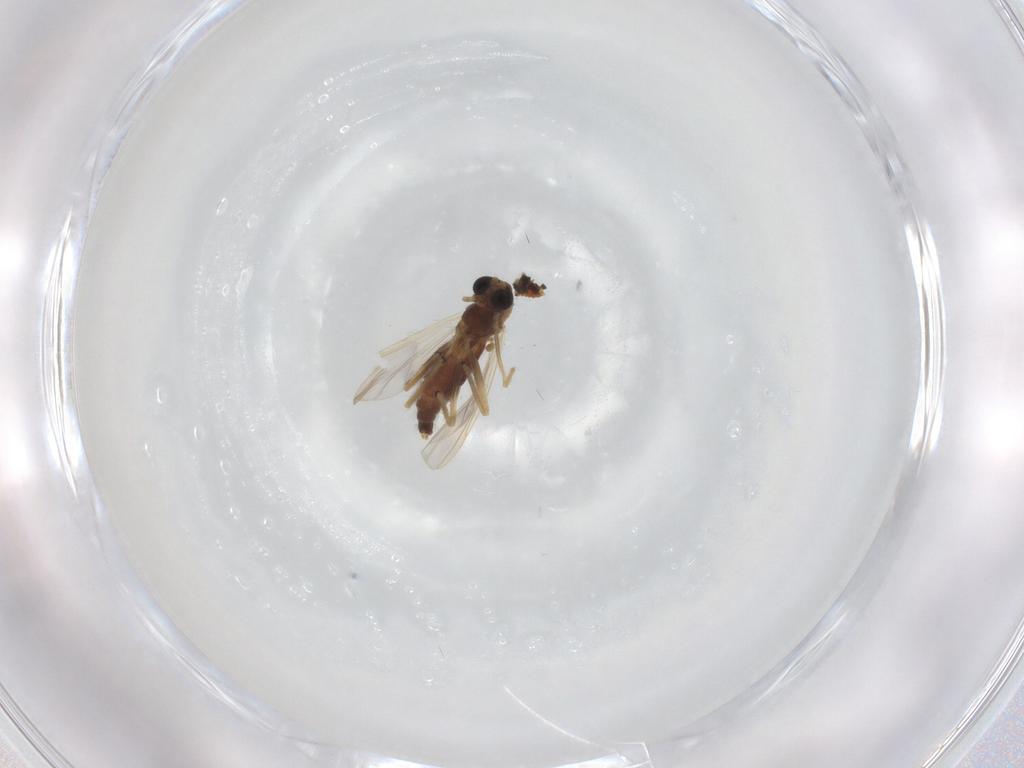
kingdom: Animalia
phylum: Arthropoda
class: Insecta
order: Diptera
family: Chironomidae
